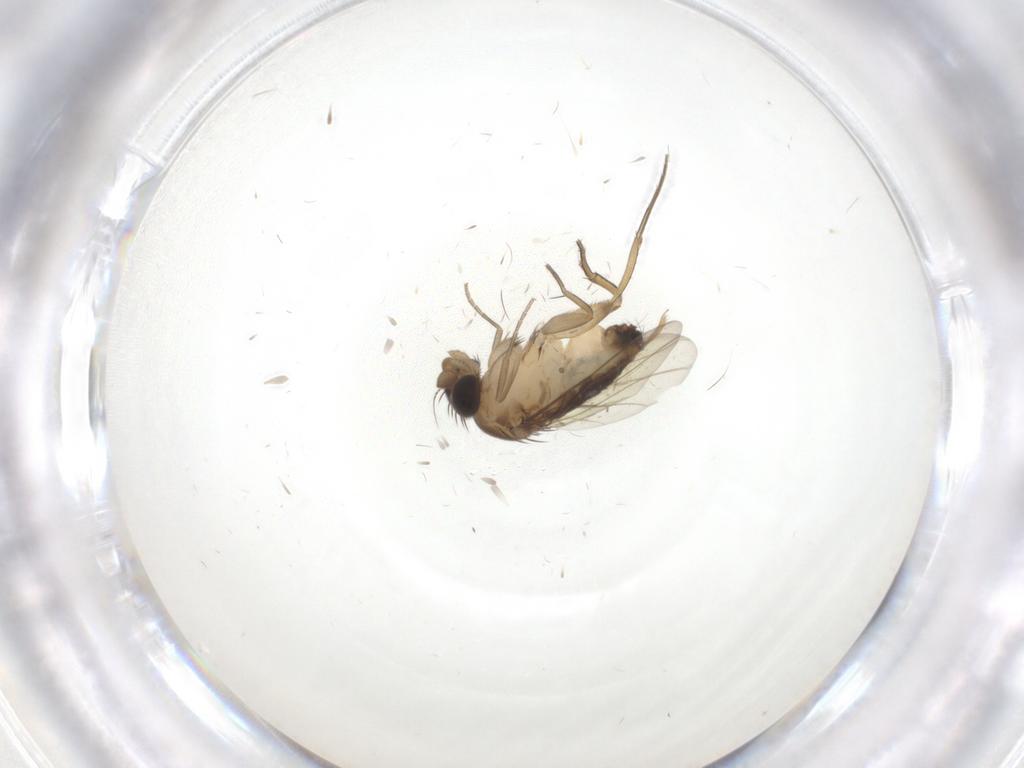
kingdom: Animalia
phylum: Arthropoda
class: Insecta
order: Diptera
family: Phoridae
